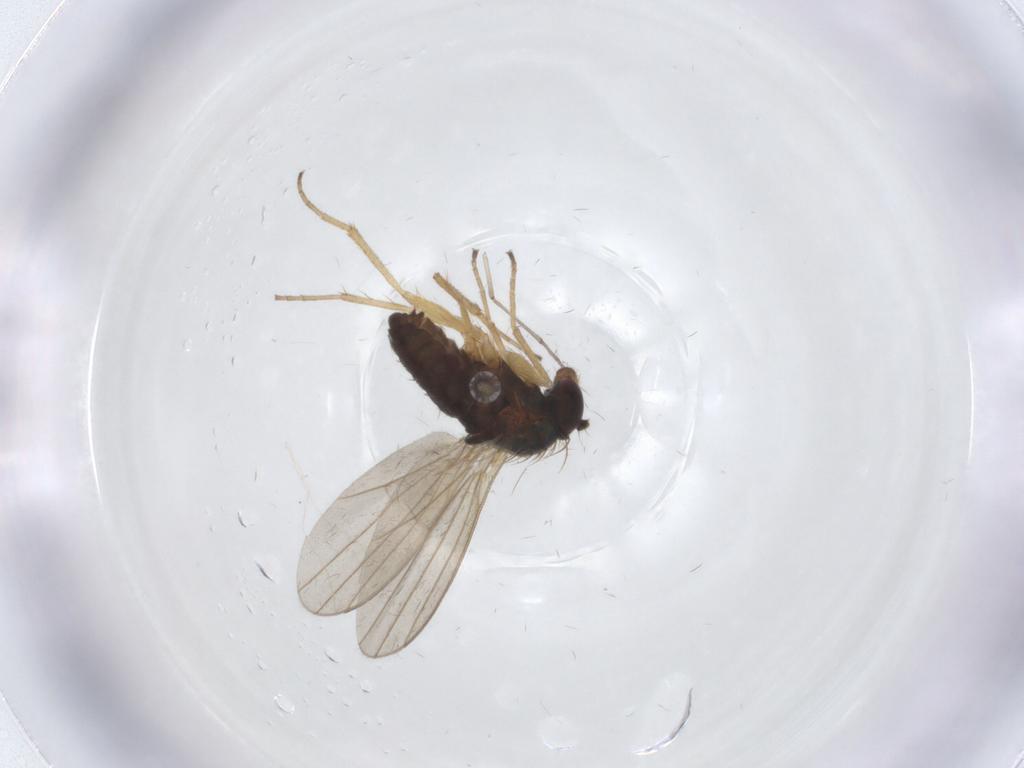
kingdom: Animalia
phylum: Arthropoda
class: Insecta
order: Diptera
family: Dolichopodidae
